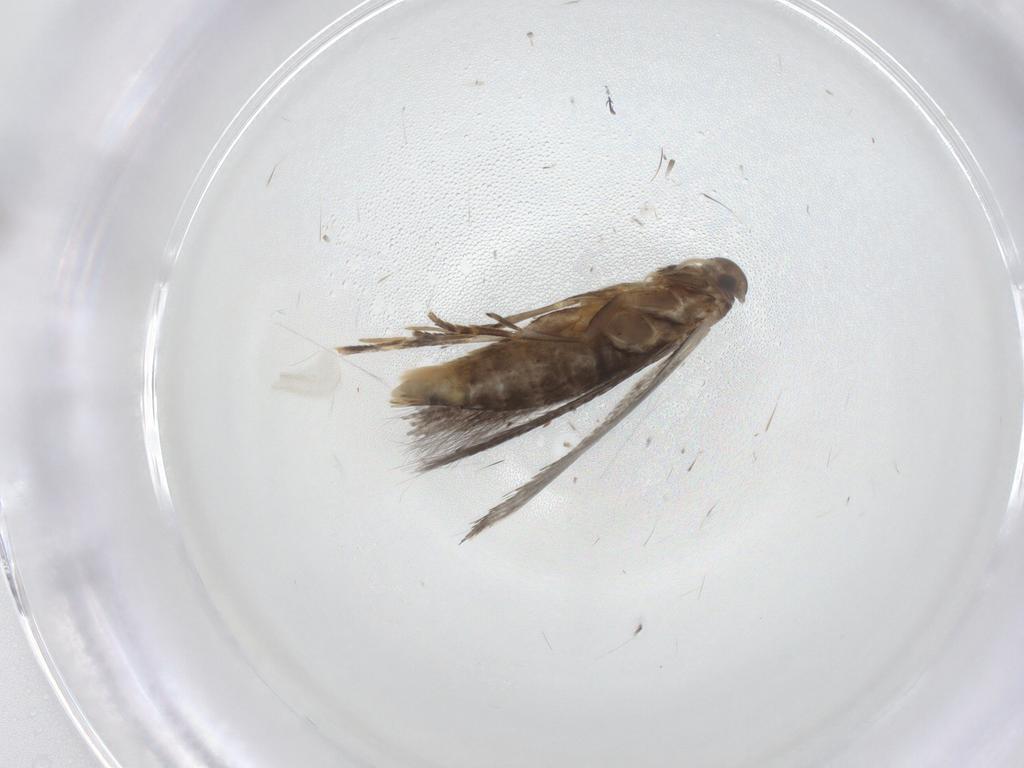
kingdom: Animalia
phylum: Arthropoda
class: Insecta
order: Lepidoptera
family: Elachistidae
